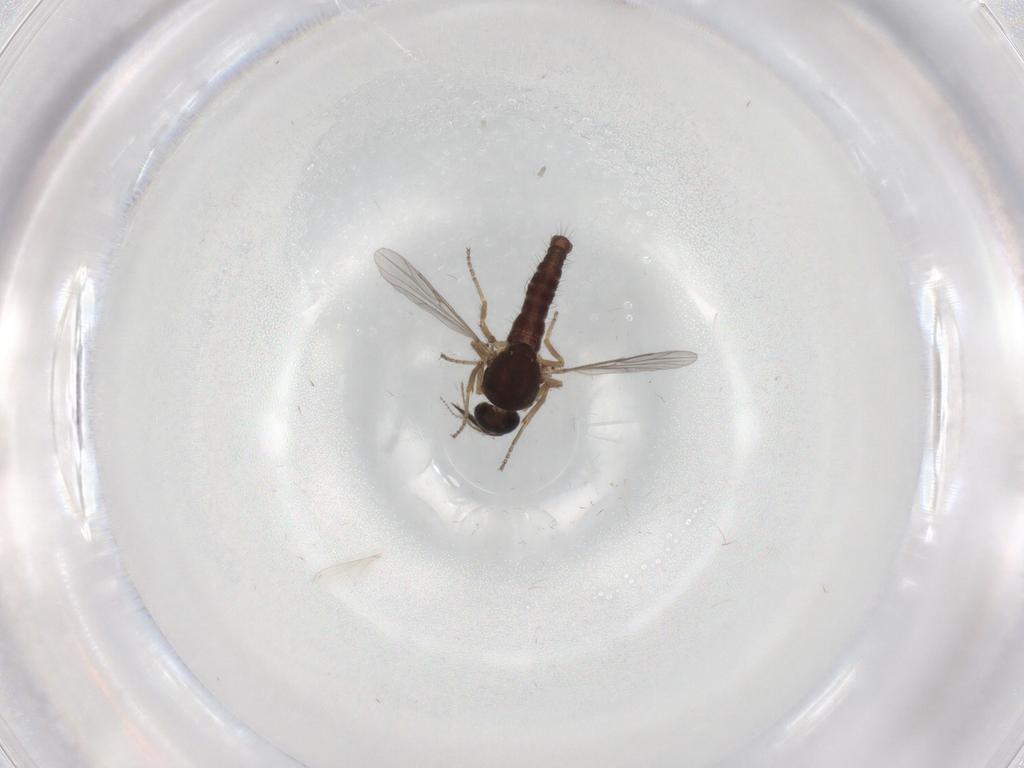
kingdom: Animalia
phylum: Arthropoda
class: Insecta
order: Diptera
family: Ceratopogonidae
